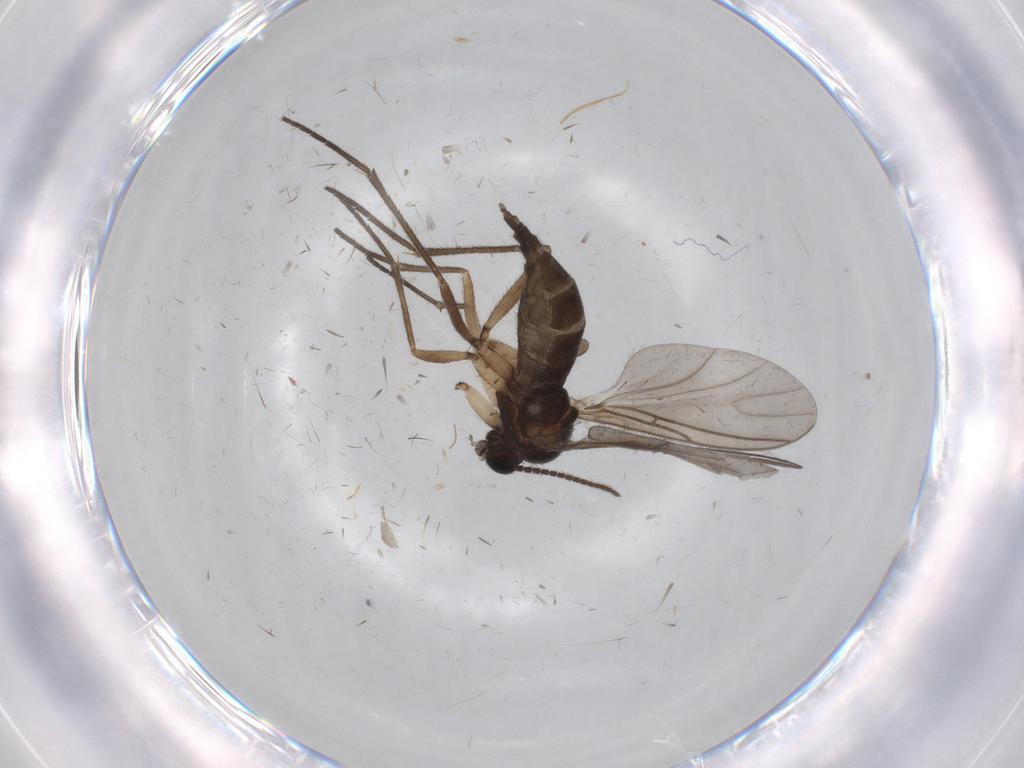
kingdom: Animalia
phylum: Arthropoda
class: Insecta
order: Diptera
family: Sciaridae
